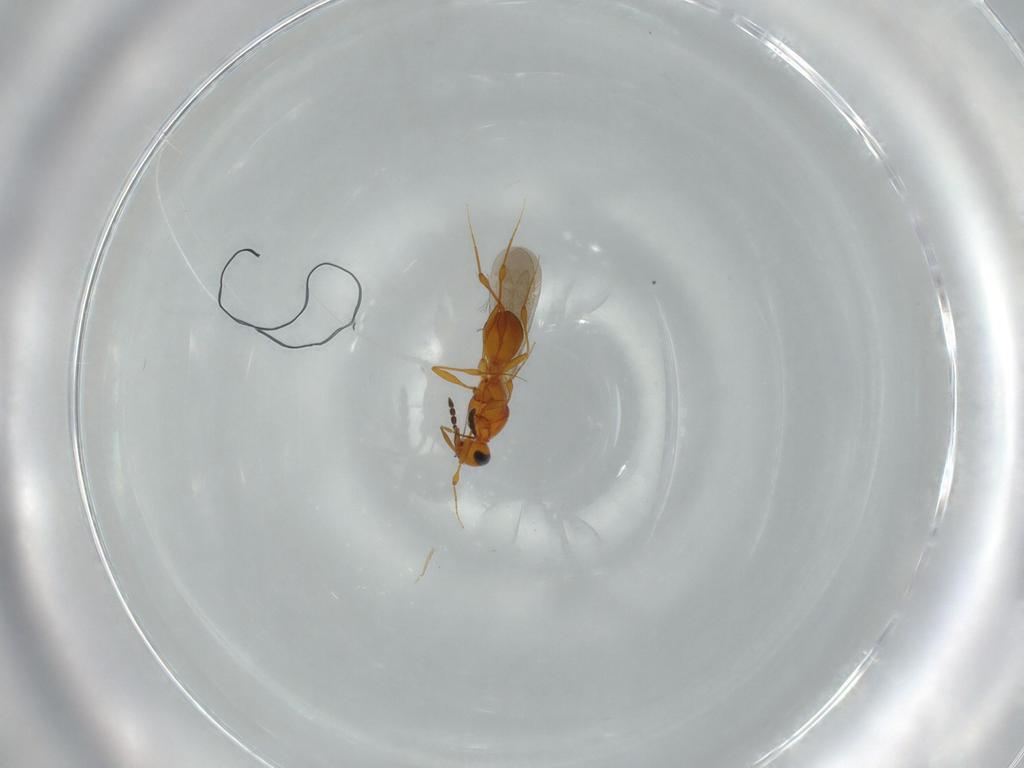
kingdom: Animalia
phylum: Arthropoda
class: Insecta
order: Hymenoptera
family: Platygastridae
